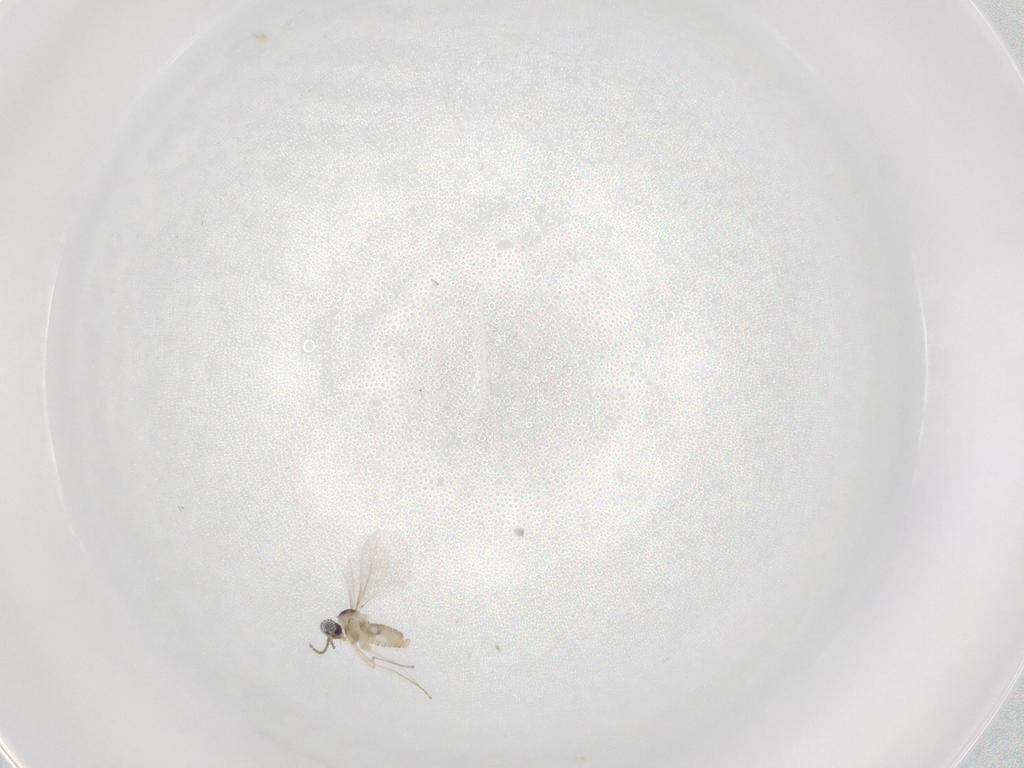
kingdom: Animalia
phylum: Arthropoda
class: Insecta
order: Diptera
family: Cecidomyiidae
